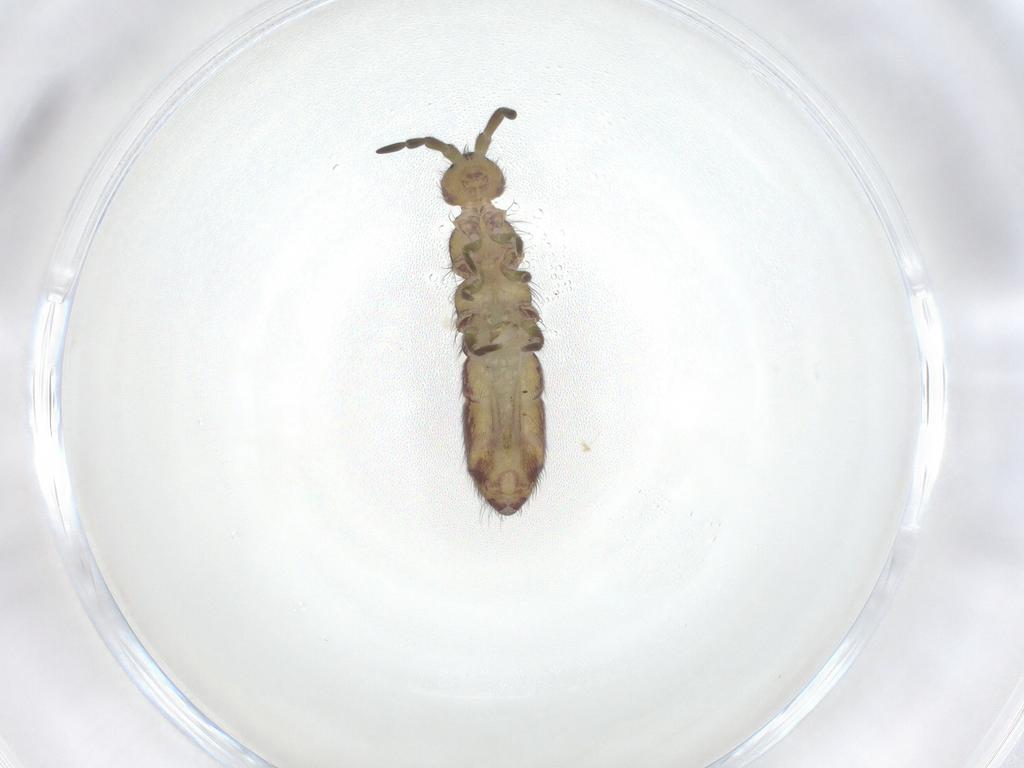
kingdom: Animalia
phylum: Arthropoda
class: Collembola
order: Entomobryomorpha
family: Isotomidae
